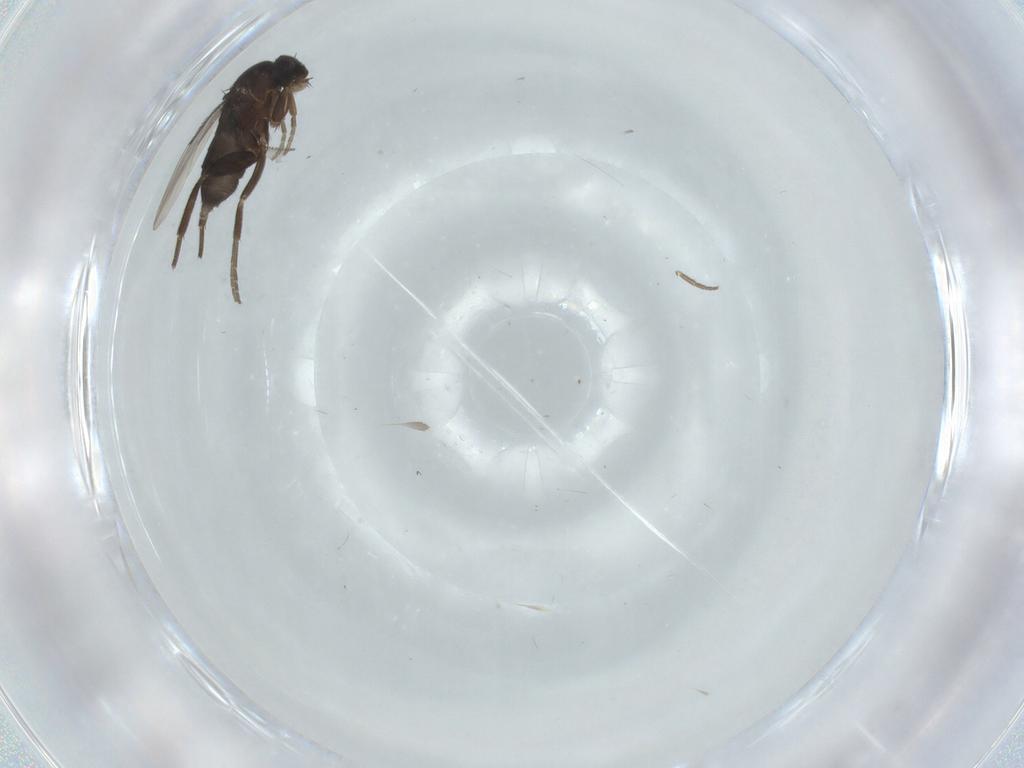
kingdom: Animalia
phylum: Arthropoda
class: Insecta
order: Diptera
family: Phoridae
